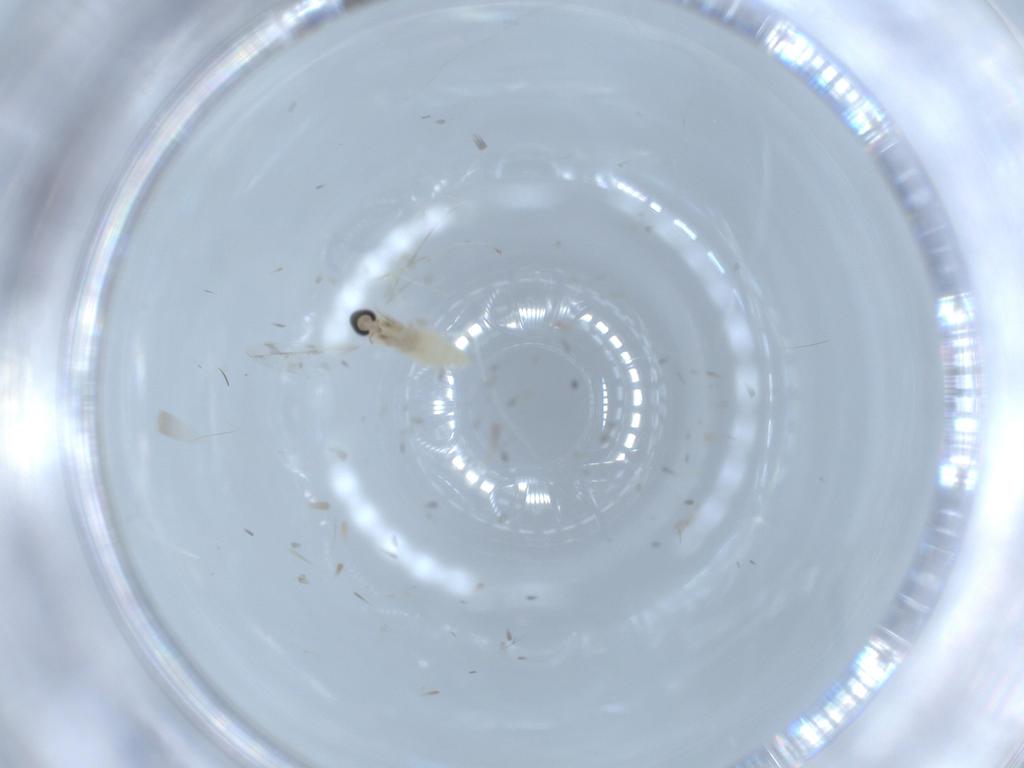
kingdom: Animalia
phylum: Arthropoda
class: Insecta
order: Diptera
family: Cecidomyiidae
